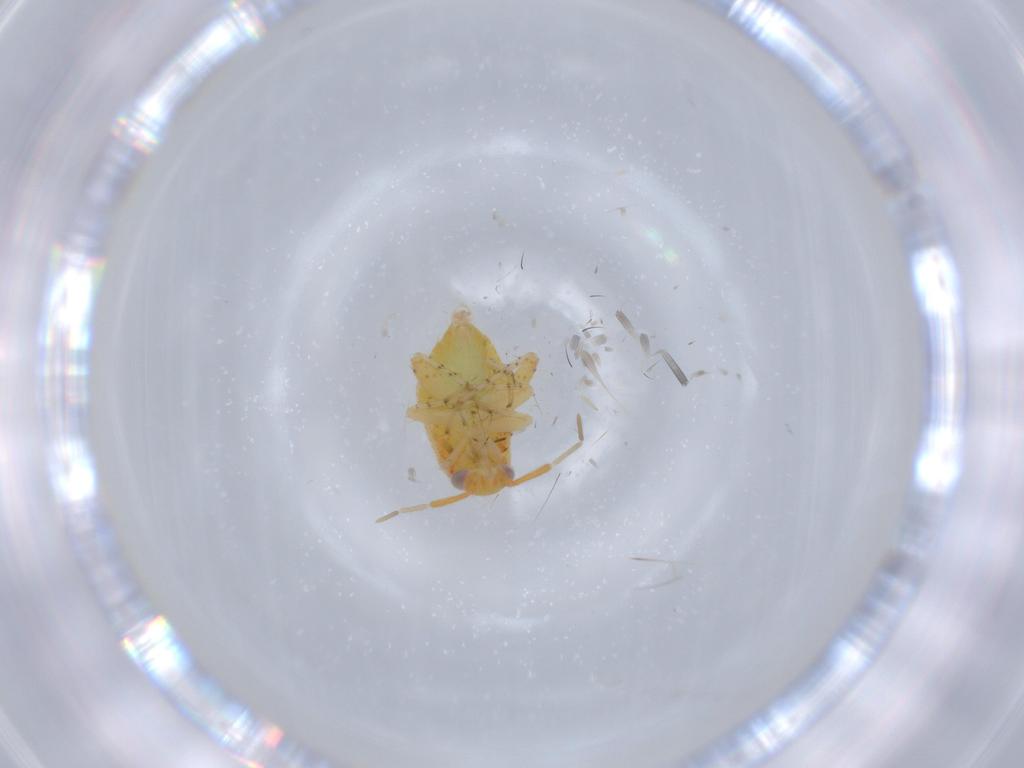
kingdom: Animalia
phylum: Arthropoda
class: Insecta
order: Hemiptera
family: Miridae
